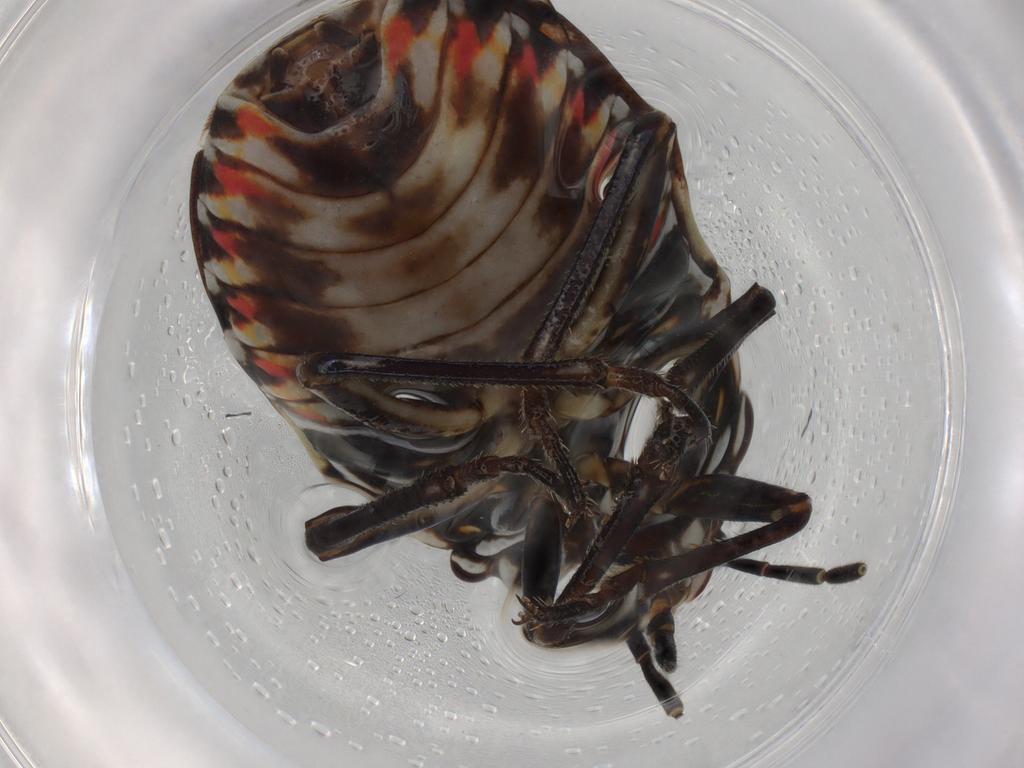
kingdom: Animalia
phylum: Arthropoda
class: Insecta
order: Hemiptera
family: Pentatomidae
